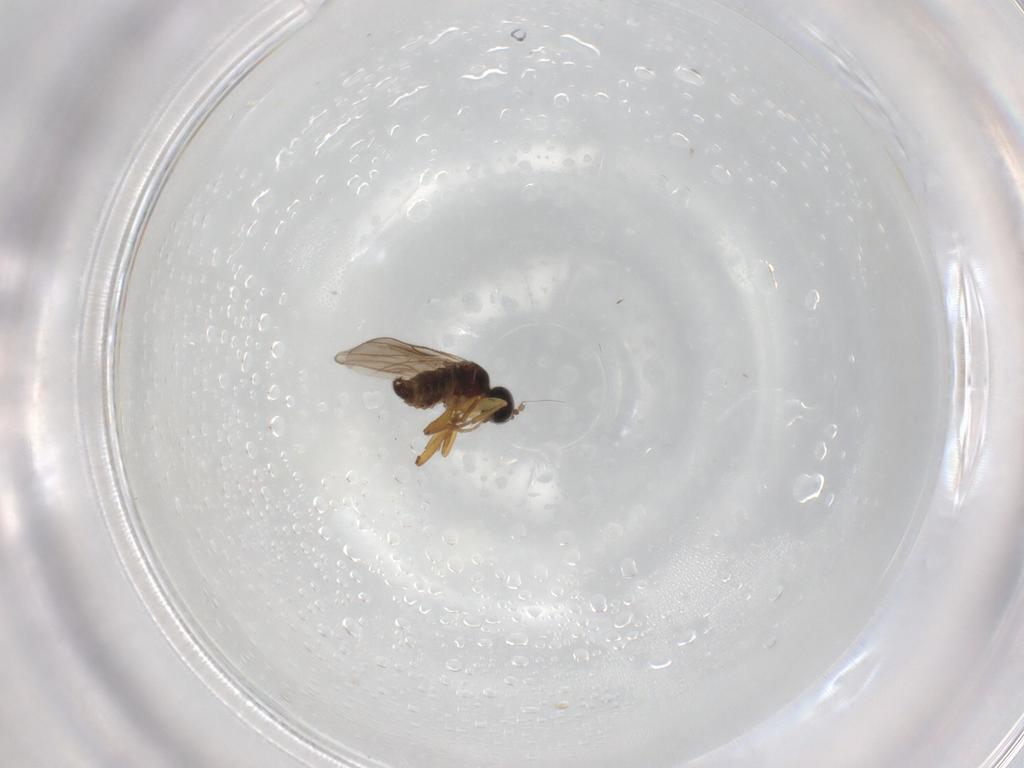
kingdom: Animalia
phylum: Arthropoda
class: Insecta
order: Diptera
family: Hybotidae
